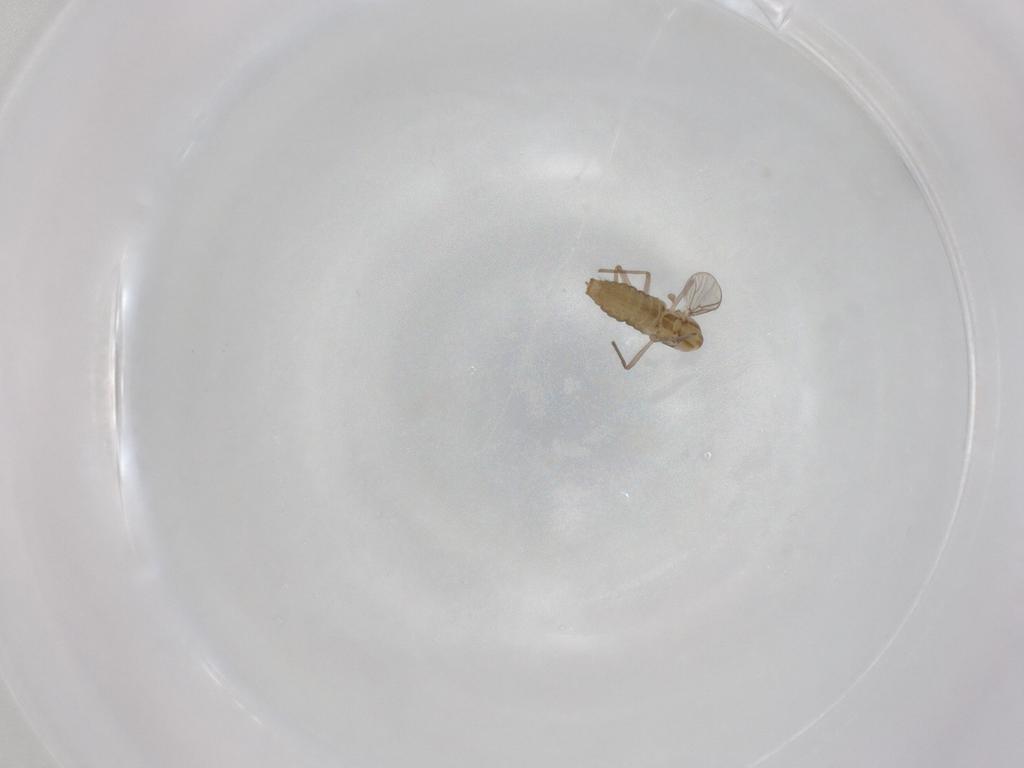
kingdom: Animalia
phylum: Arthropoda
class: Insecta
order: Diptera
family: Chironomidae
